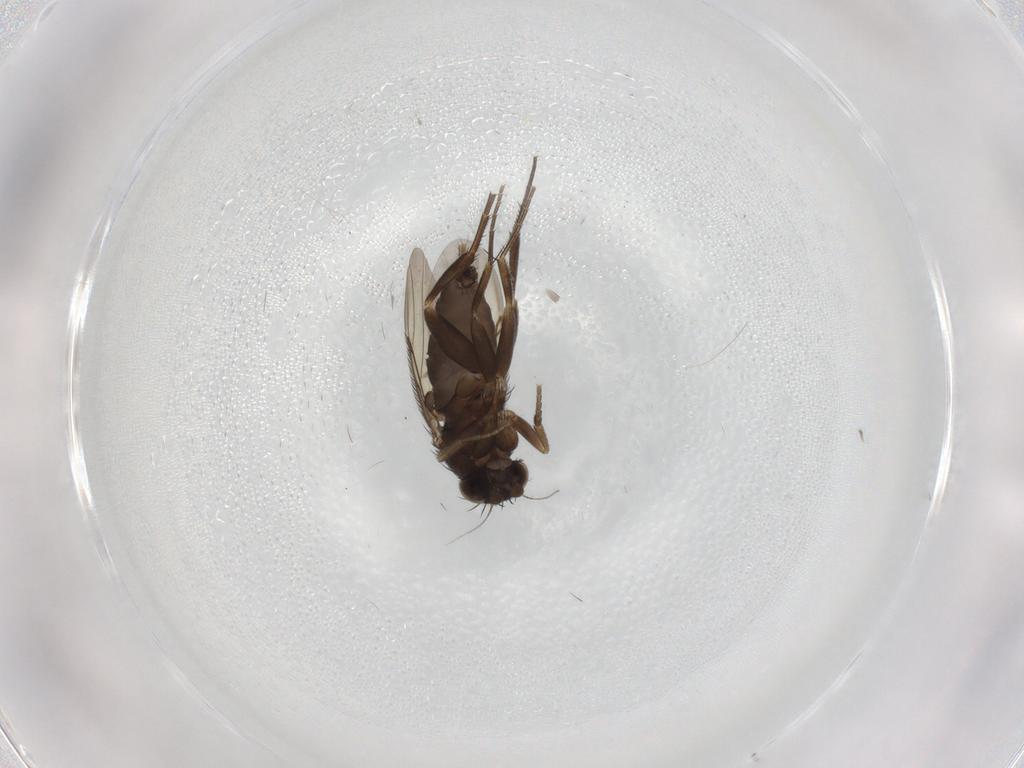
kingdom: Animalia
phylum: Arthropoda
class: Insecta
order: Diptera
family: Phoridae
